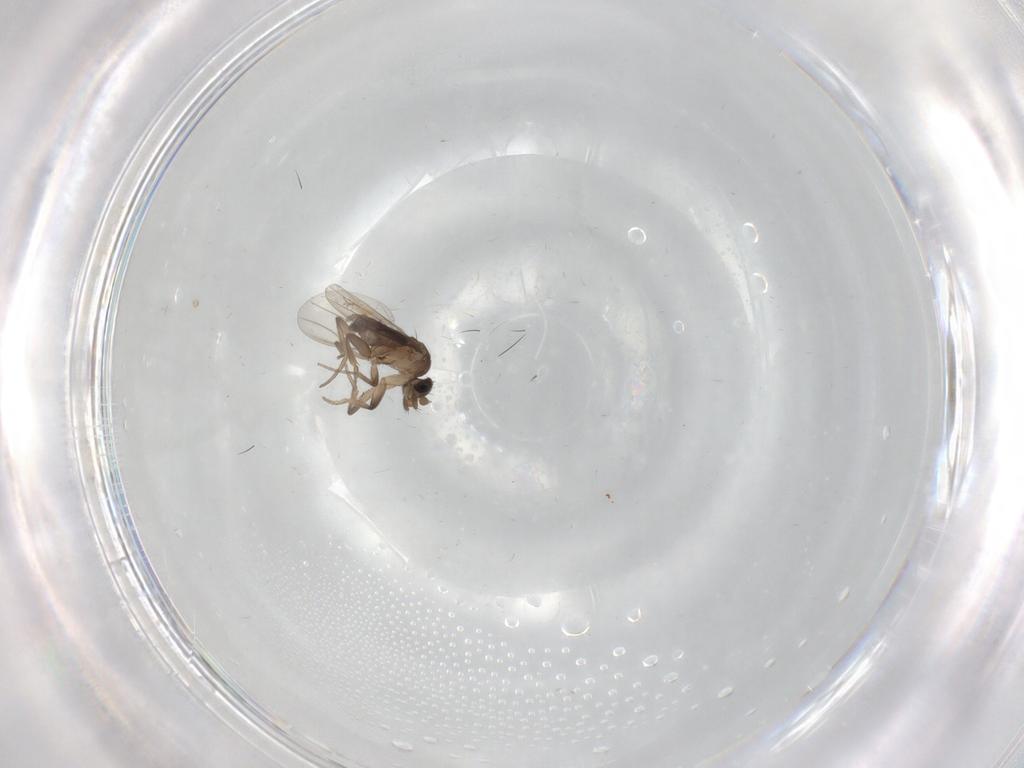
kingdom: Animalia
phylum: Arthropoda
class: Insecta
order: Diptera
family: Phoridae
